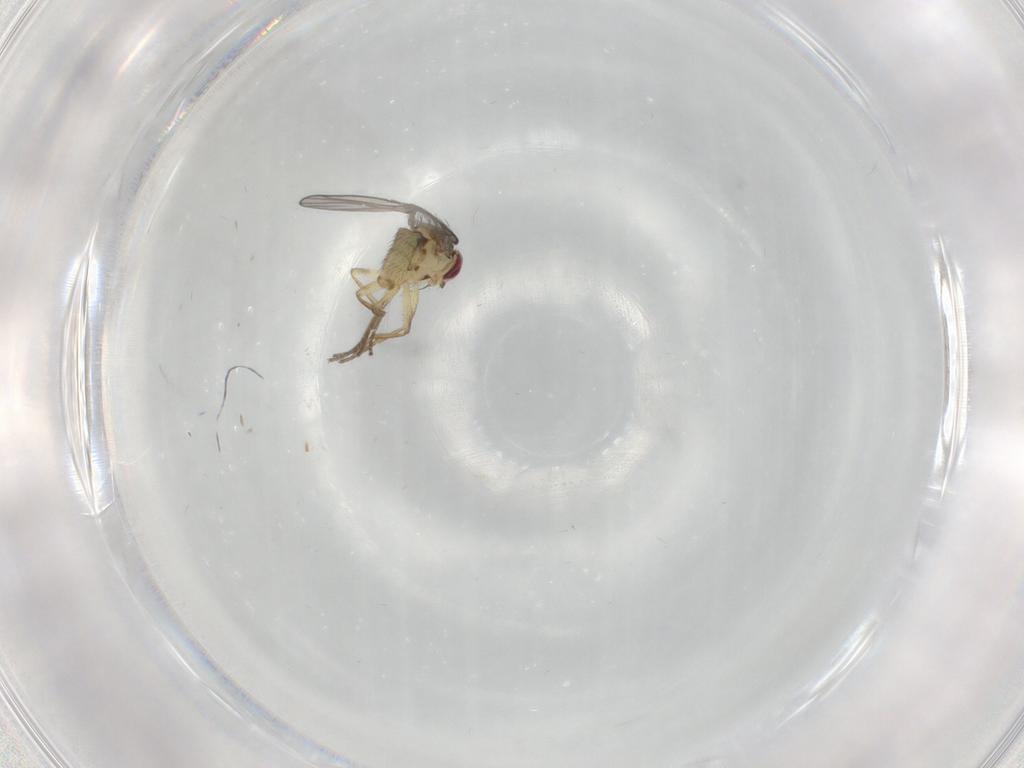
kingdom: Animalia
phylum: Arthropoda
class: Insecta
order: Diptera
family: Agromyzidae
